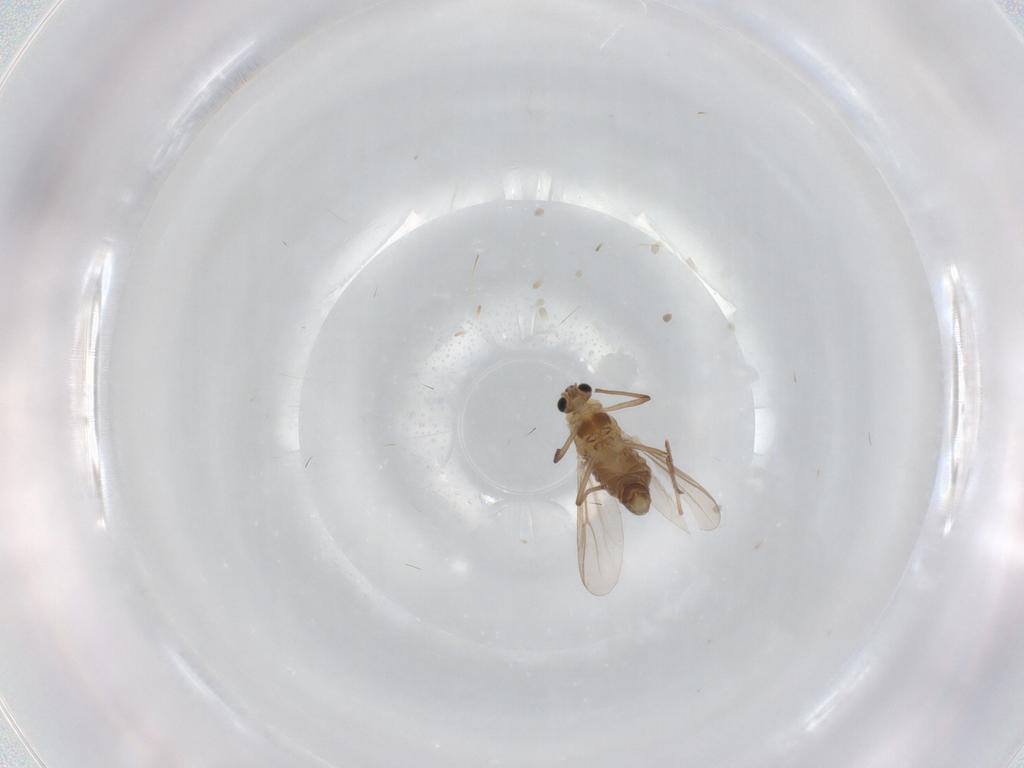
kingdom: Animalia
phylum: Arthropoda
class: Insecta
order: Diptera
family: Chironomidae
